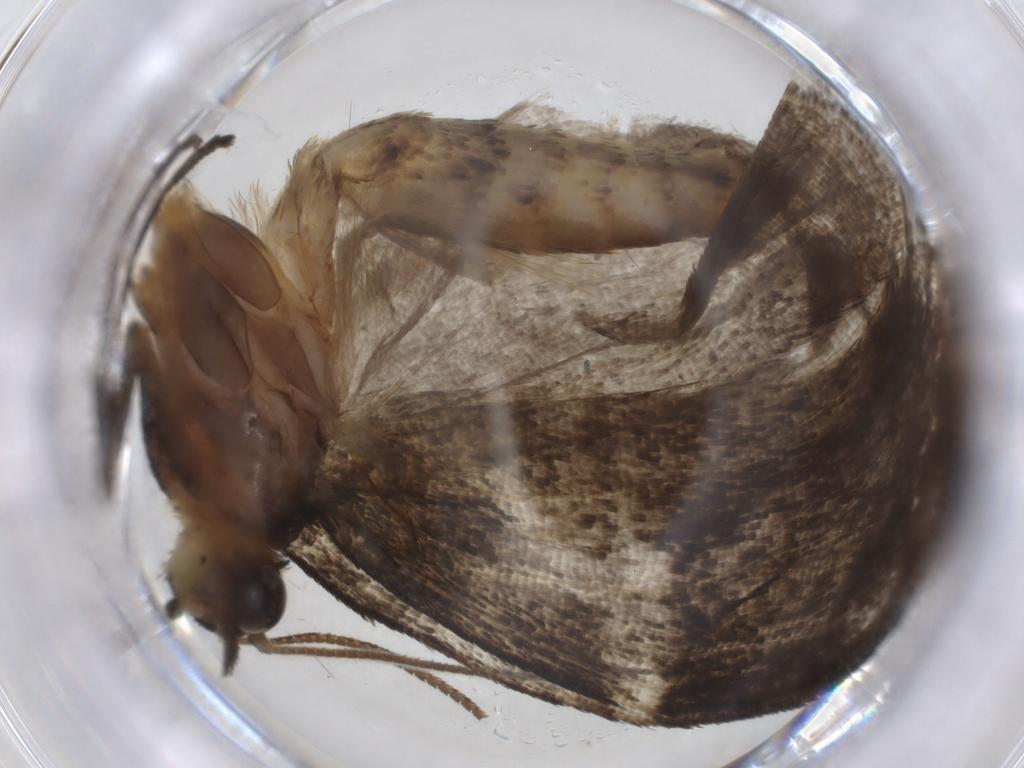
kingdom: Animalia
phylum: Arthropoda
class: Insecta
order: Lepidoptera
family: Crambidae
